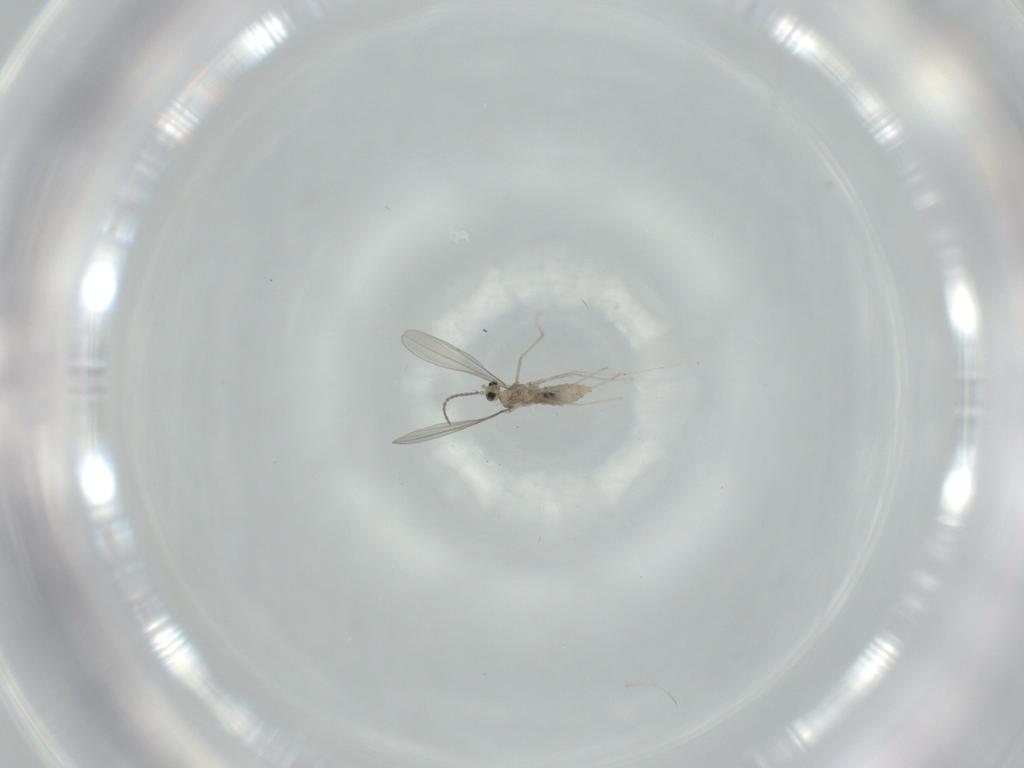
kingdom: Animalia
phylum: Arthropoda
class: Insecta
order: Diptera
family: Cecidomyiidae
